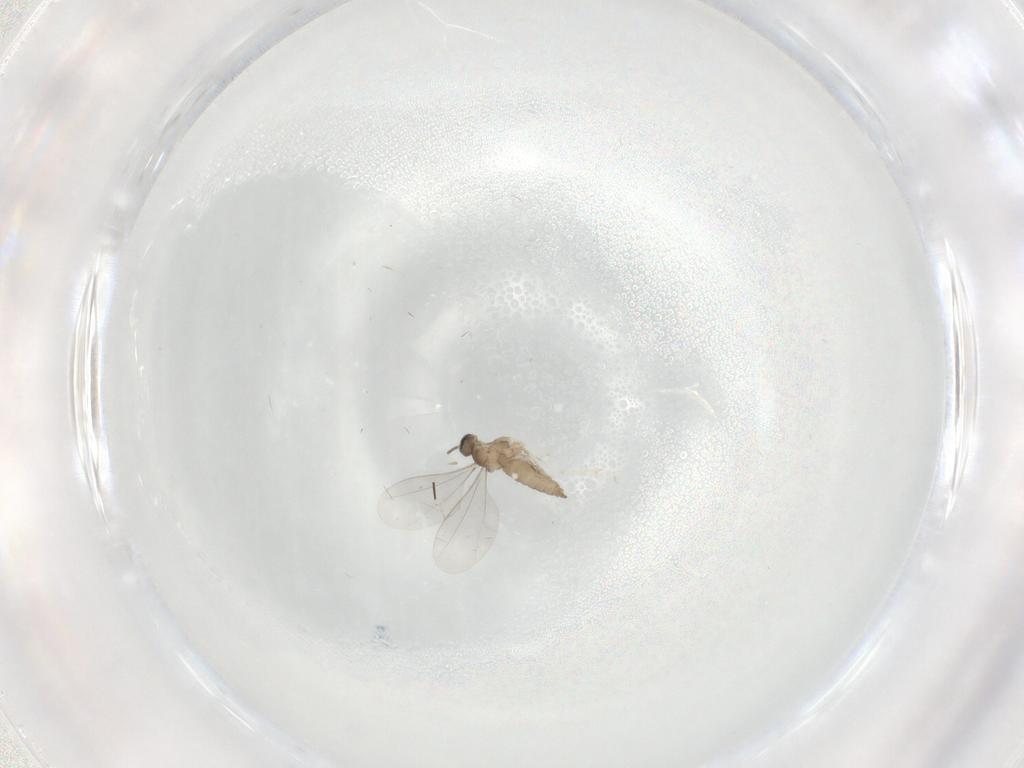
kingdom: Animalia
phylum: Arthropoda
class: Insecta
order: Diptera
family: Cecidomyiidae
